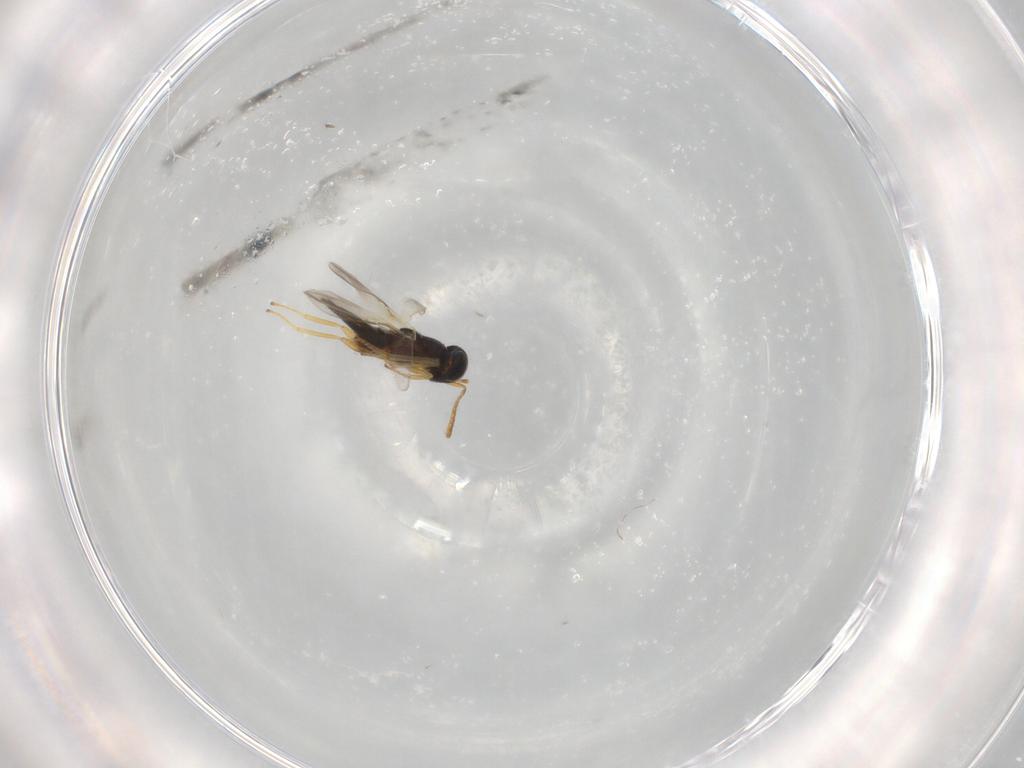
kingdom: Animalia
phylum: Arthropoda
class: Insecta
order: Hymenoptera
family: Encyrtidae
